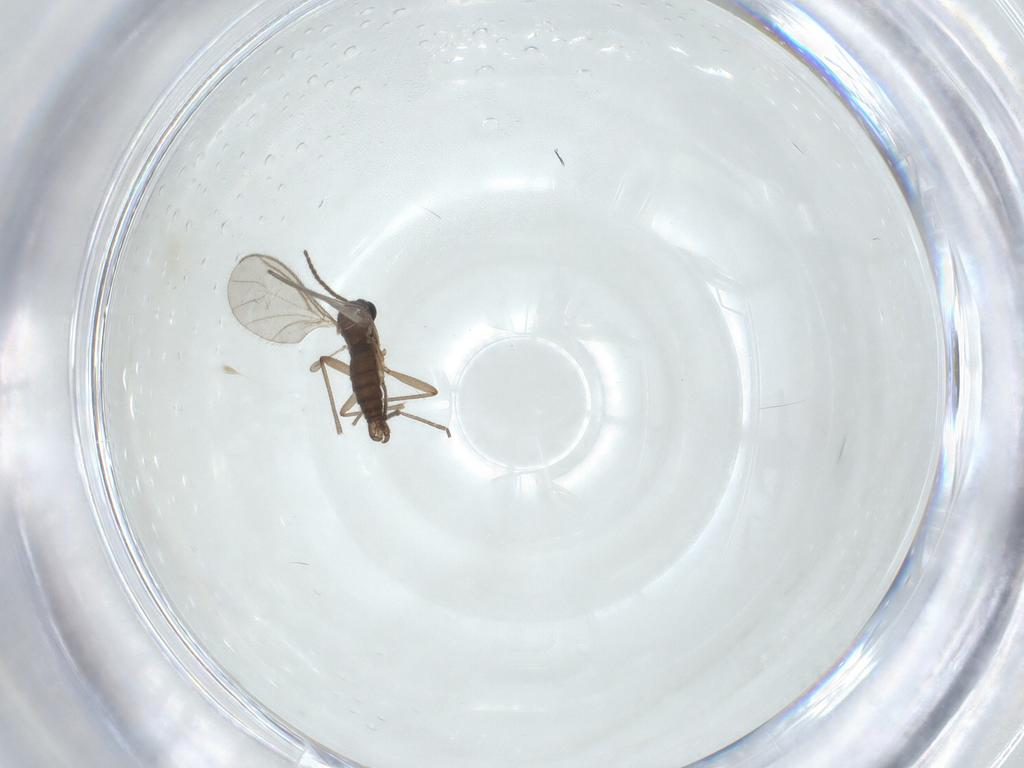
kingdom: Animalia
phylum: Arthropoda
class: Insecta
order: Diptera
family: Sciaridae
